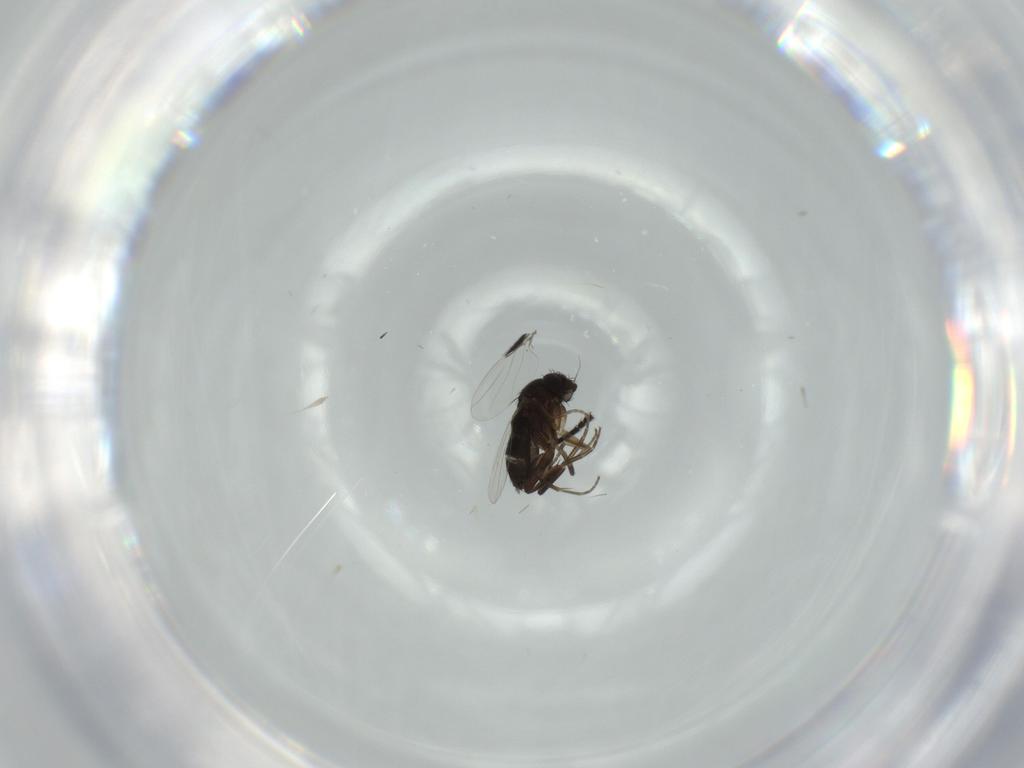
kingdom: Animalia
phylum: Arthropoda
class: Insecta
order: Diptera
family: Phoridae
